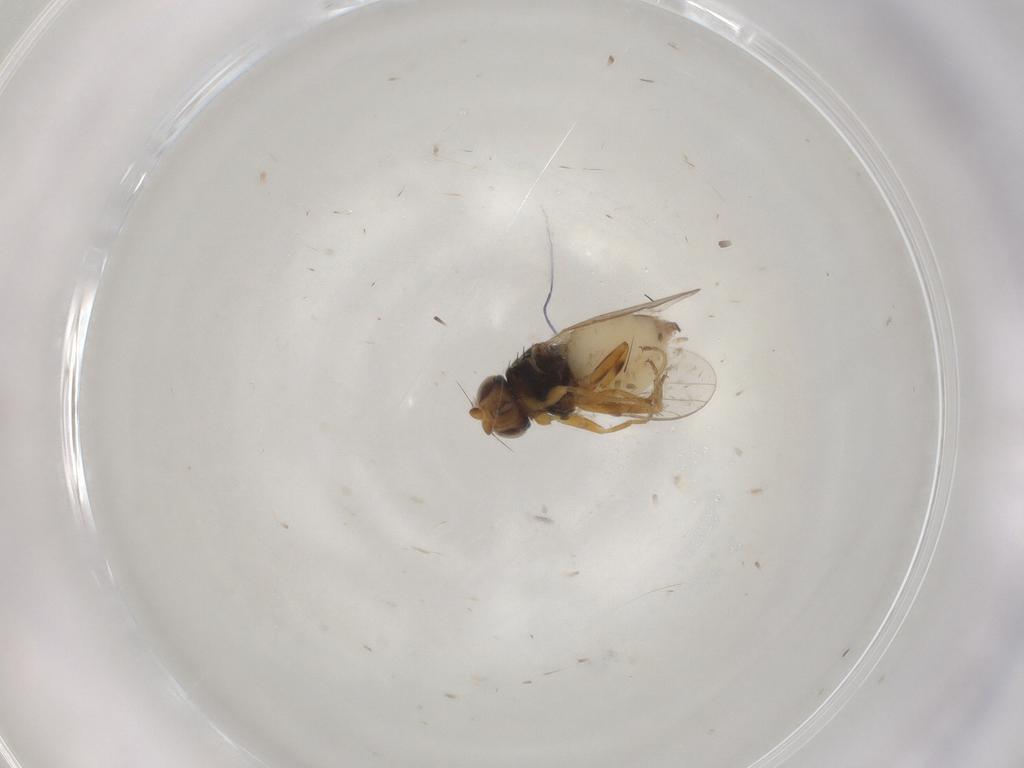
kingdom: Animalia
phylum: Arthropoda
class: Insecta
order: Diptera
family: Chloropidae
